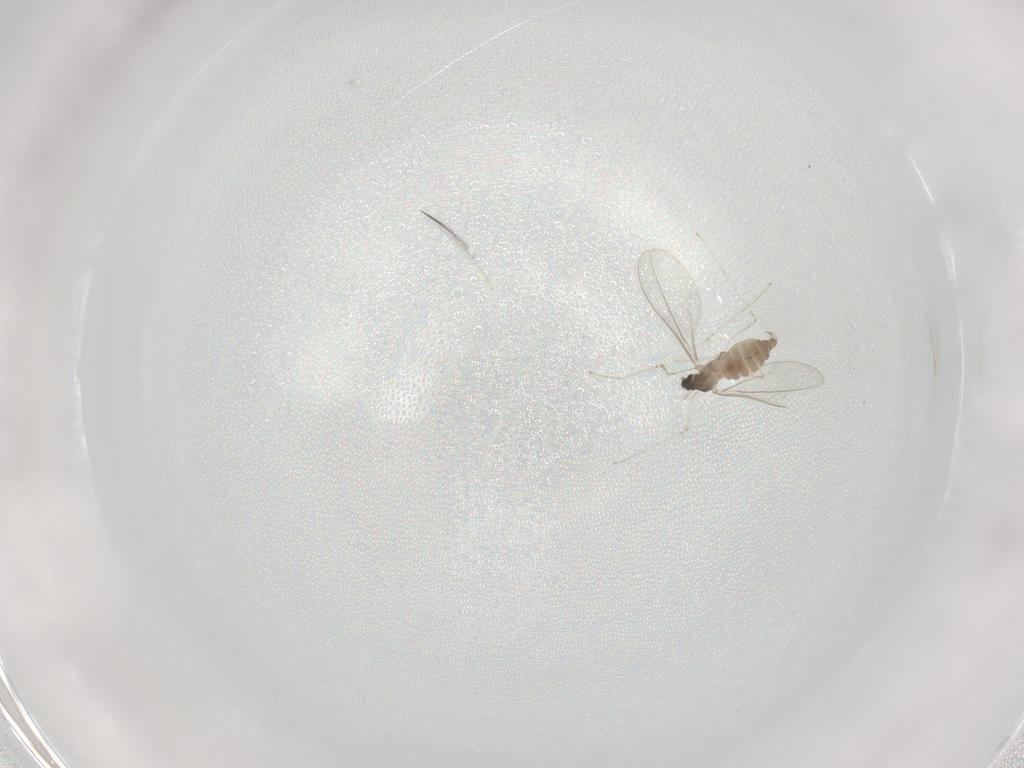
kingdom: Animalia
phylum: Arthropoda
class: Insecta
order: Diptera
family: Cecidomyiidae
